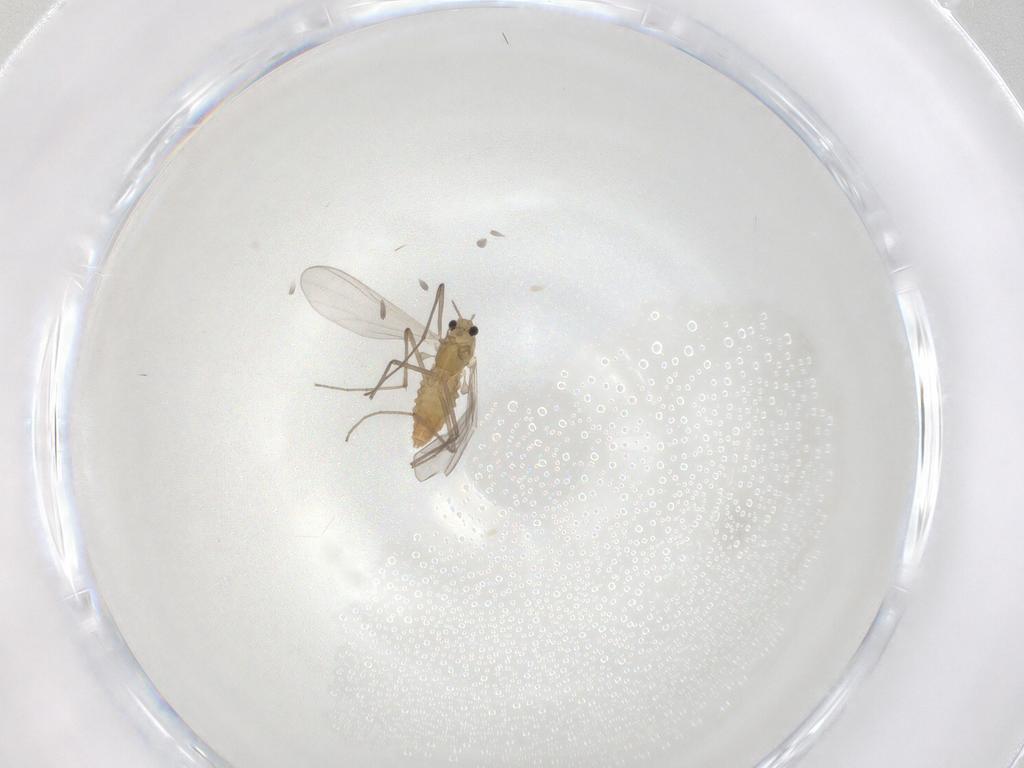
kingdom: Animalia
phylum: Arthropoda
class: Insecta
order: Diptera
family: Chironomidae
